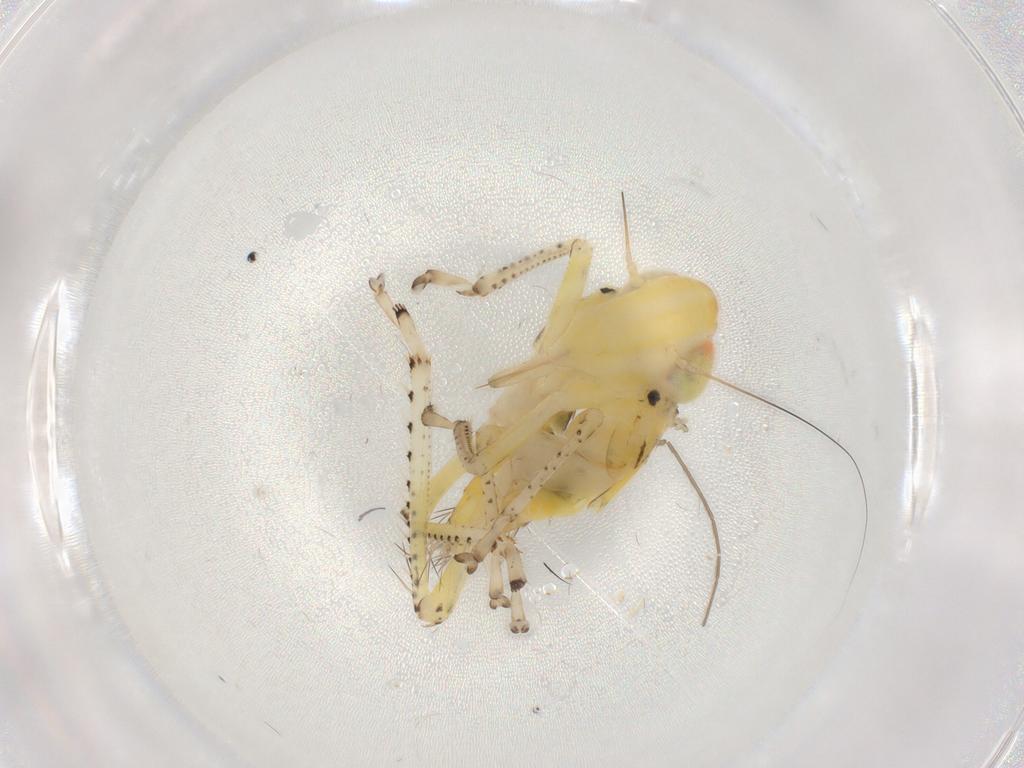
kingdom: Animalia
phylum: Arthropoda
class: Insecta
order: Hemiptera
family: Cicadellidae
